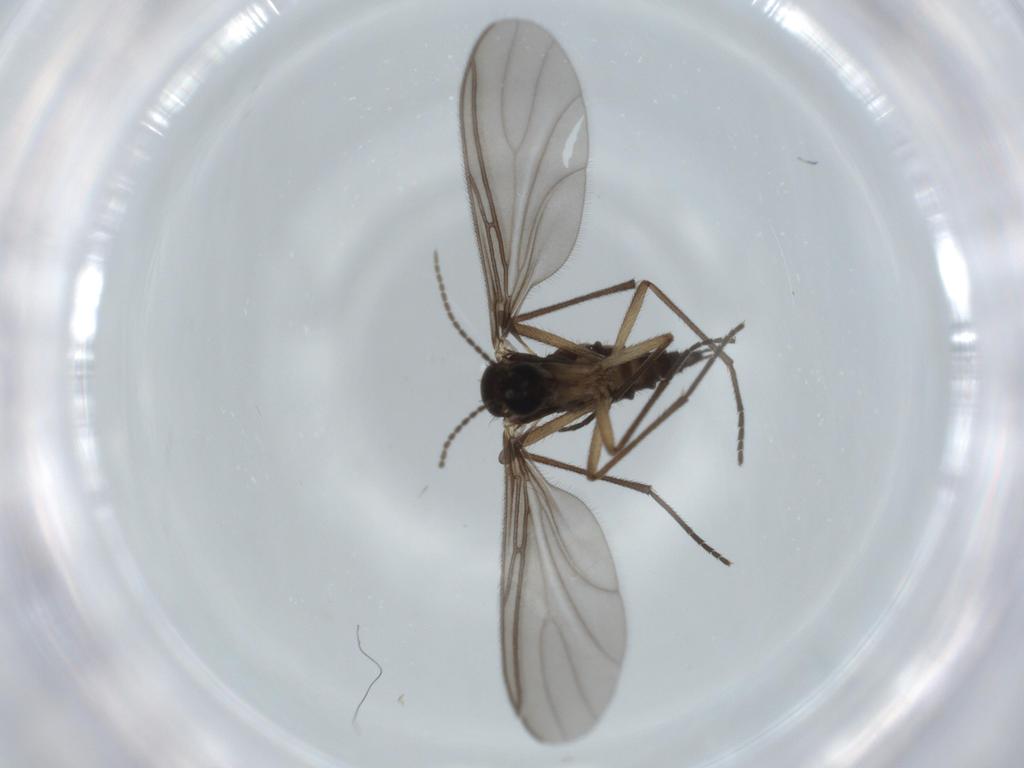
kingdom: Animalia
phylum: Arthropoda
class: Insecta
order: Diptera
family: Sciaridae
